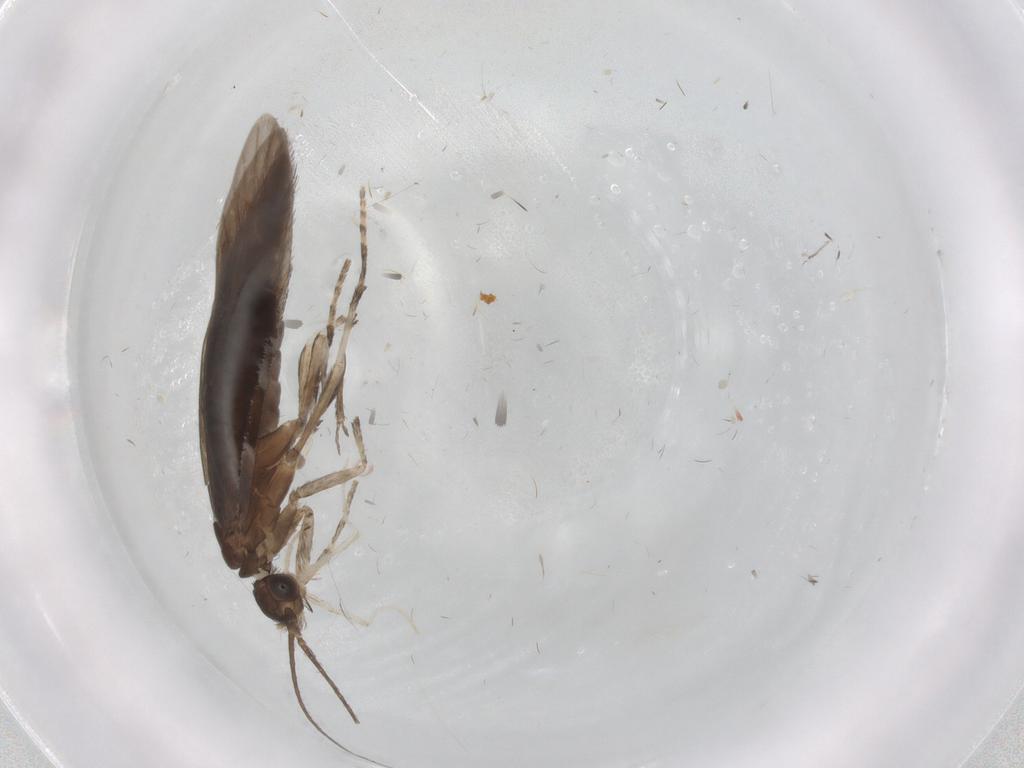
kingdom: Animalia
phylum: Arthropoda
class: Insecta
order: Trichoptera
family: Xiphocentronidae
